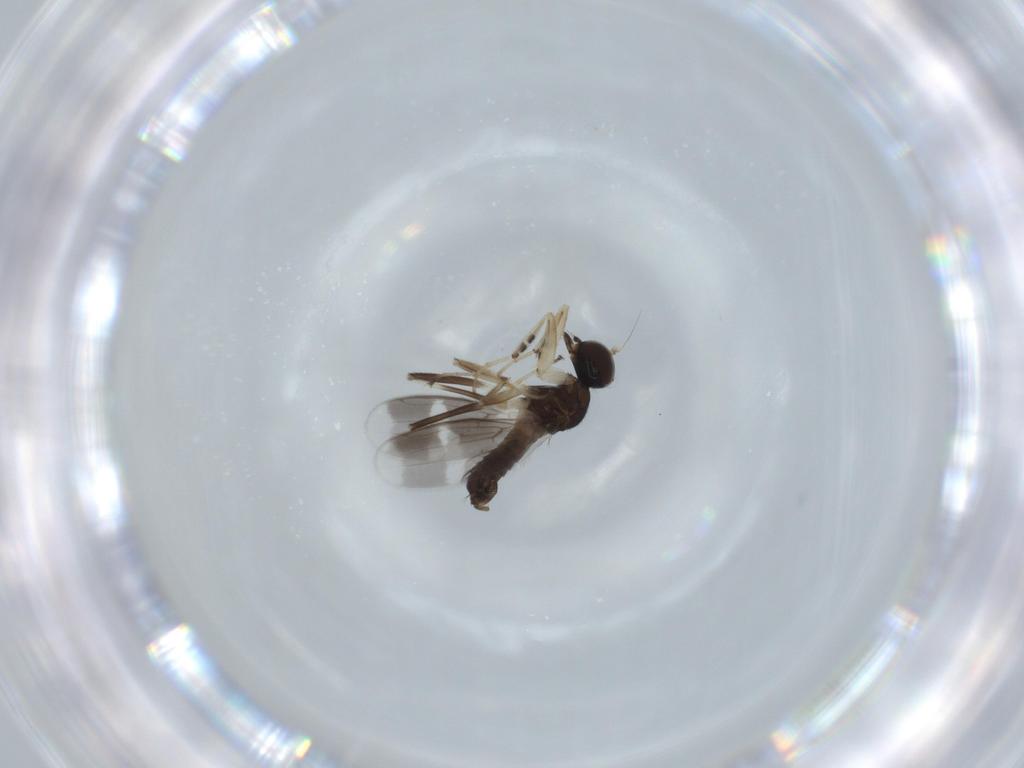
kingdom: Animalia
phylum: Arthropoda
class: Insecta
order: Diptera
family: Hybotidae
